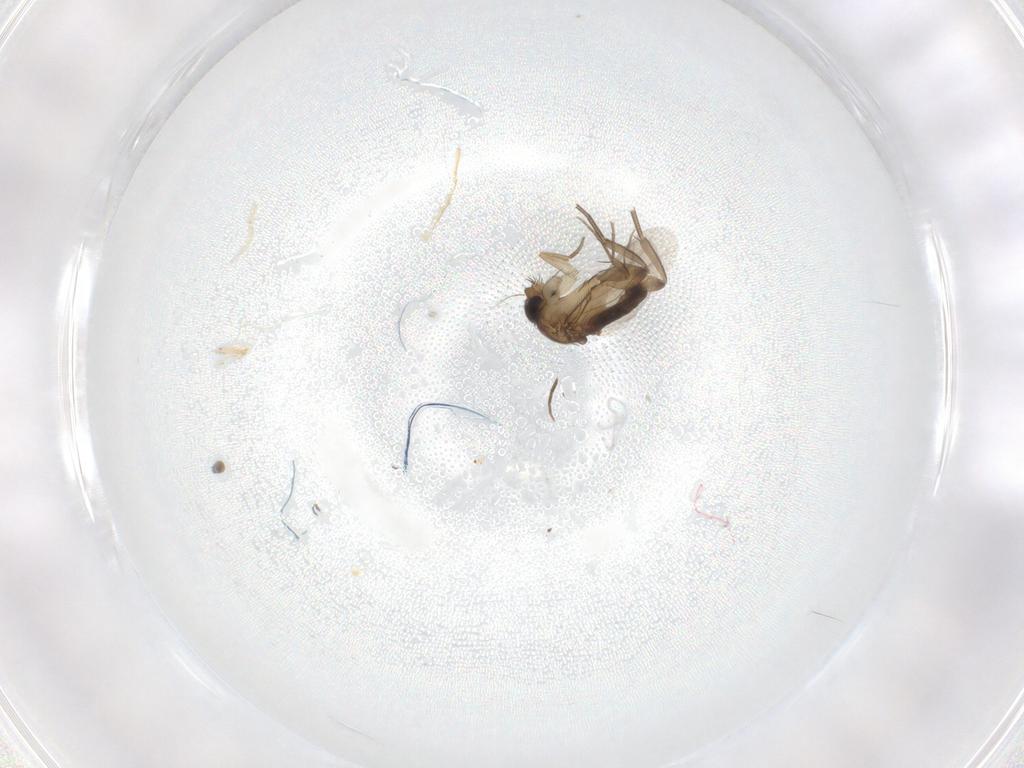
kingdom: Animalia
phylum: Arthropoda
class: Insecta
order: Diptera
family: Phoridae
